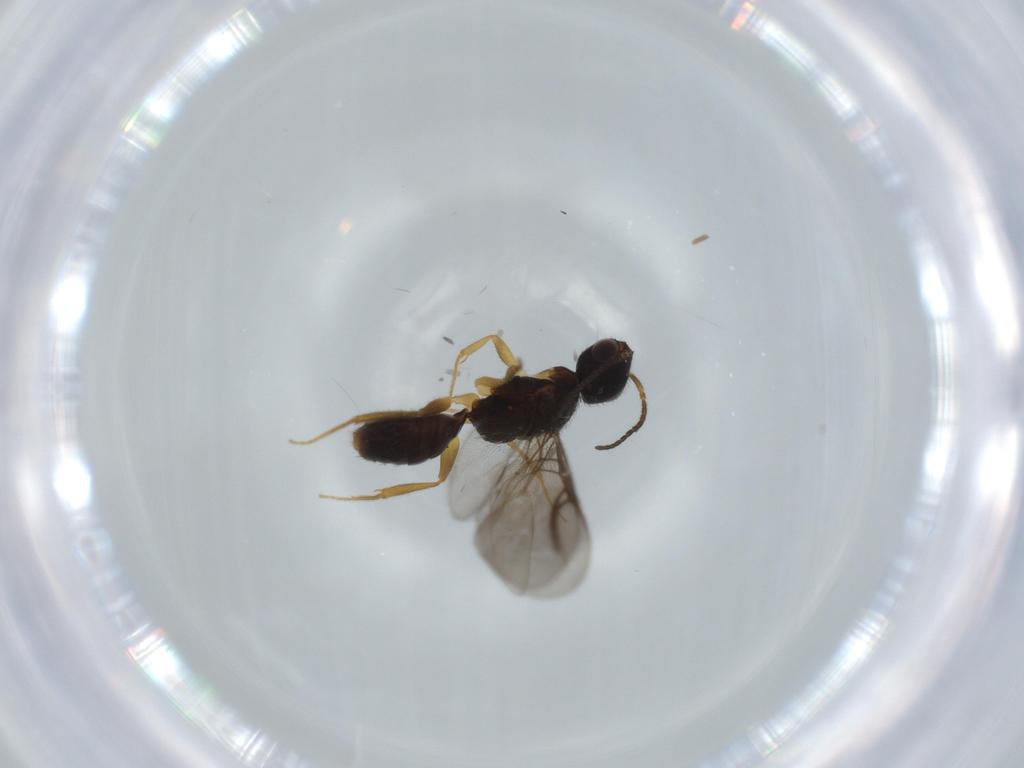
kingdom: Animalia
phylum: Arthropoda
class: Insecta
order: Hymenoptera
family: Bethylidae
